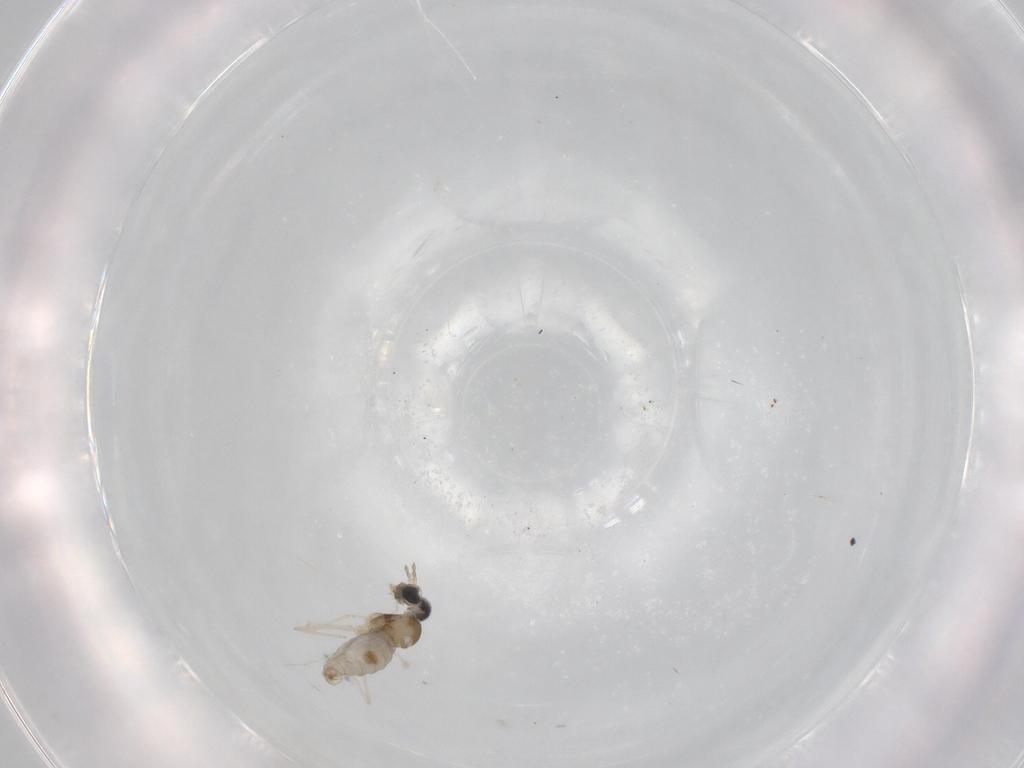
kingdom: Animalia
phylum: Arthropoda
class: Insecta
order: Diptera
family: Cecidomyiidae
